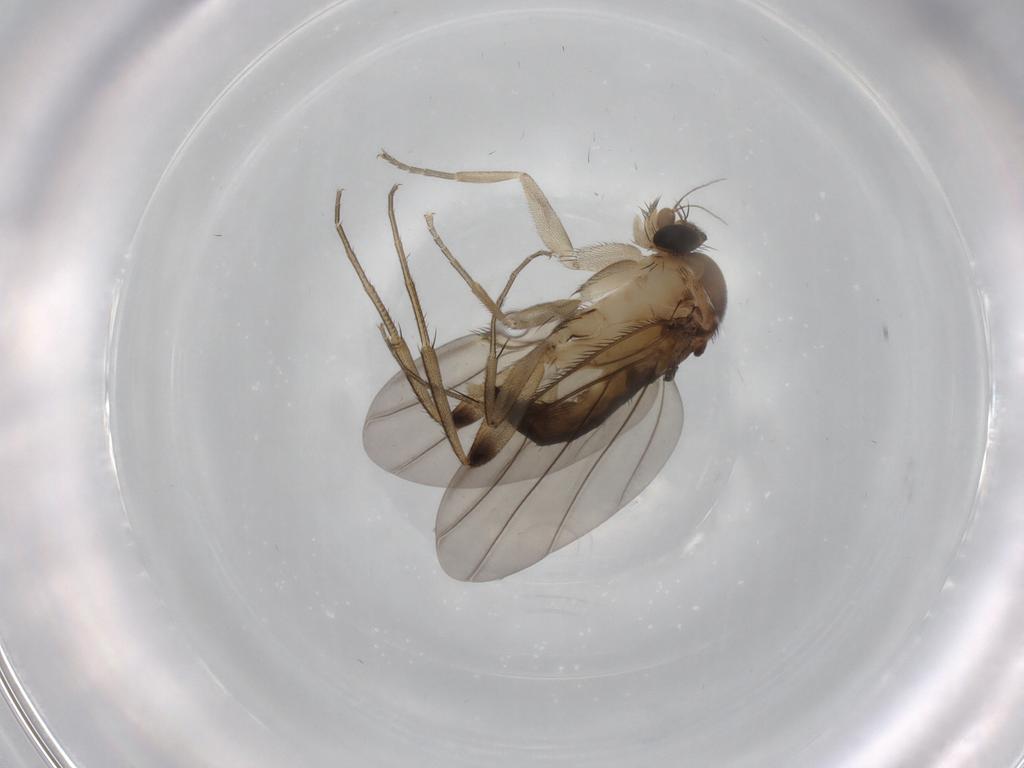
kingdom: Animalia
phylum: Arthropoda
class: Insecta
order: Diptera
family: Phoridae
